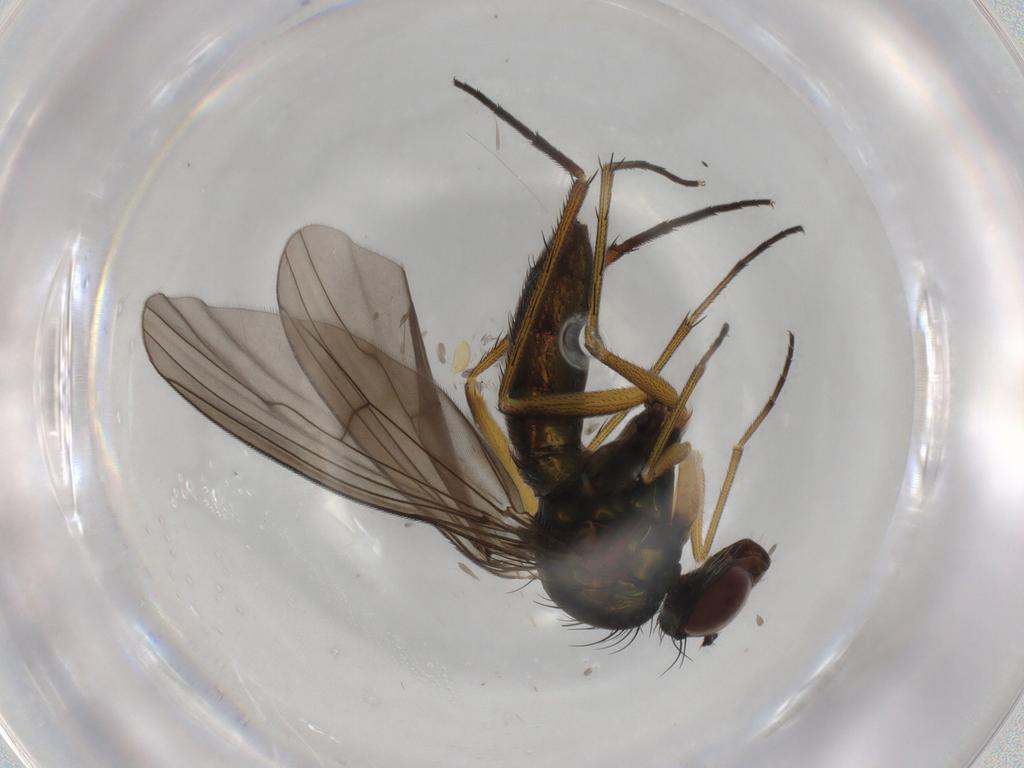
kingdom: Animalia
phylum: Arthropoda
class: Insecta
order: Diptera
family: Dolichopodidae
